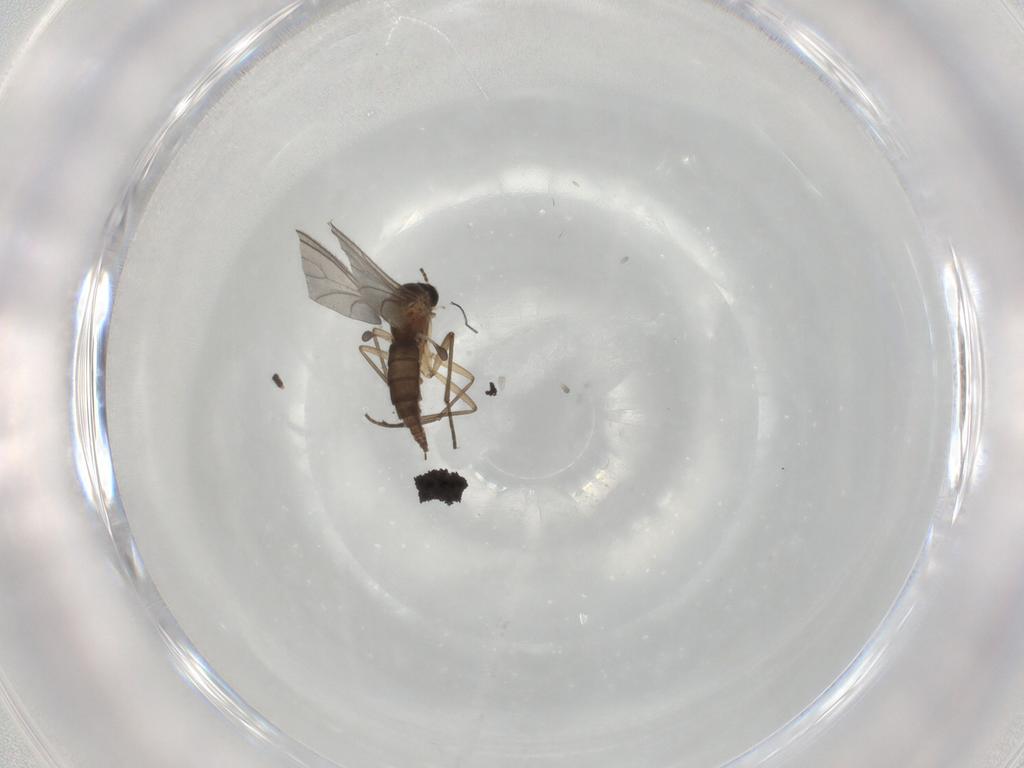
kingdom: Animalia
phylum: Arthropoda
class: Insecta
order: Diptera
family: Sciaridae
